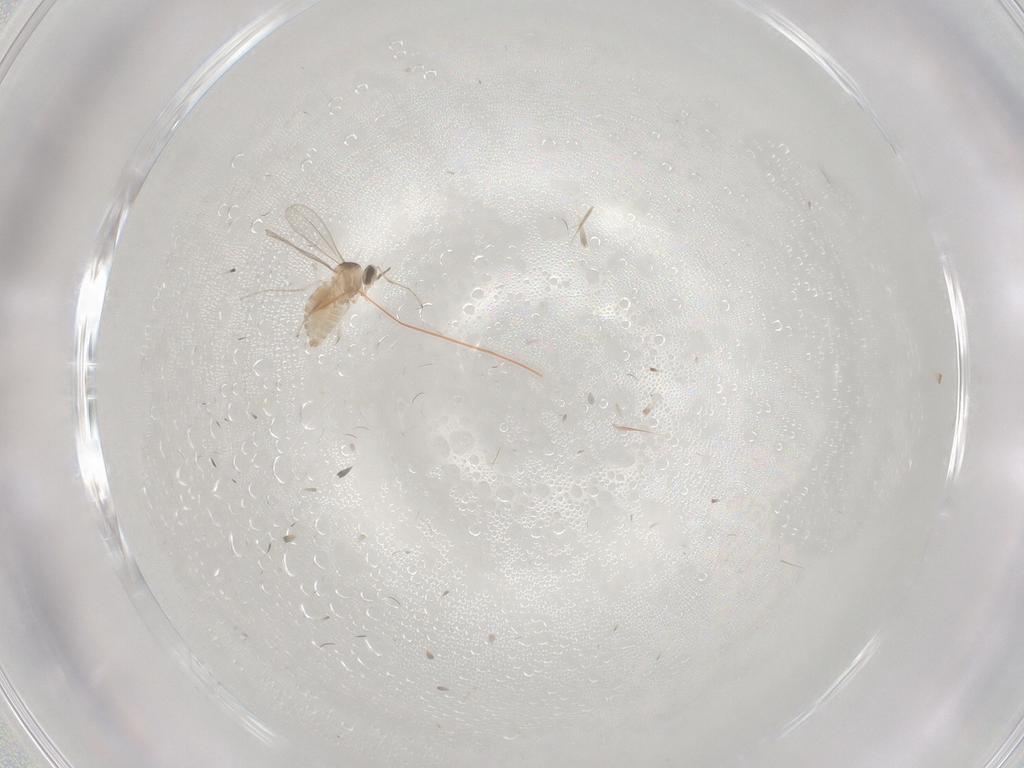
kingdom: Animalia
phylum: Arthropoda
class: Insecta
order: Diptera
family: Cecidomyiidae
